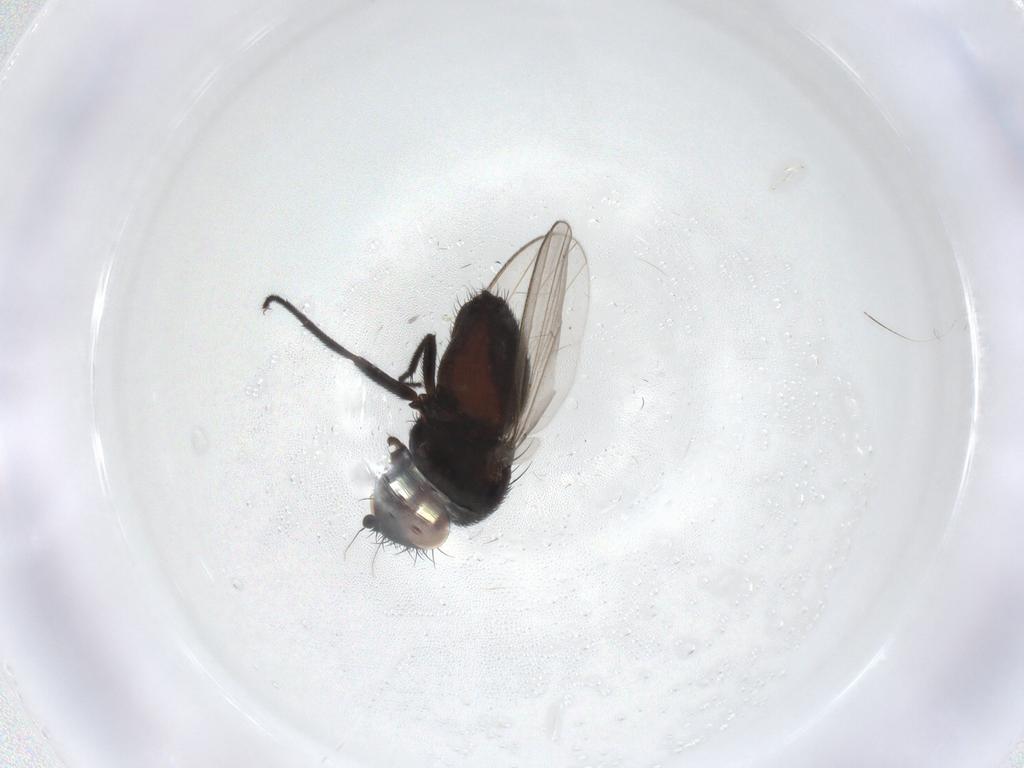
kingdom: Animalia
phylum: Arthropoda
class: Insecta
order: Diptera
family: Milichiidae
